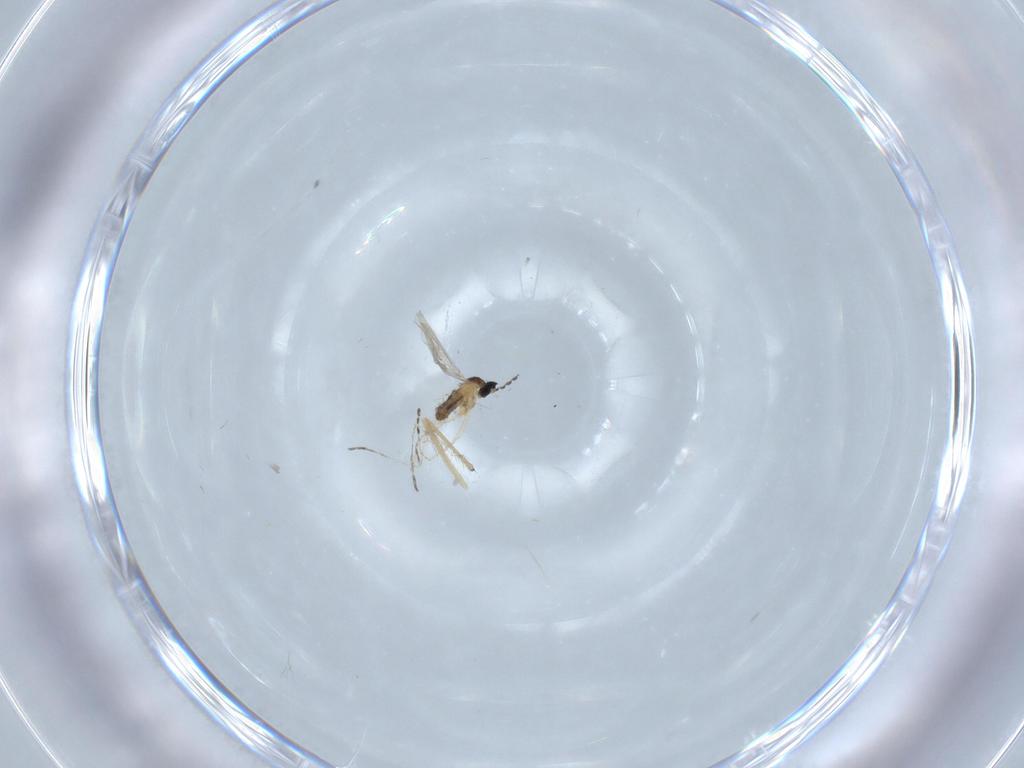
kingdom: Animalia
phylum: Arthropoda
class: Insecta
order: Diptera
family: Cecidomyiidae
